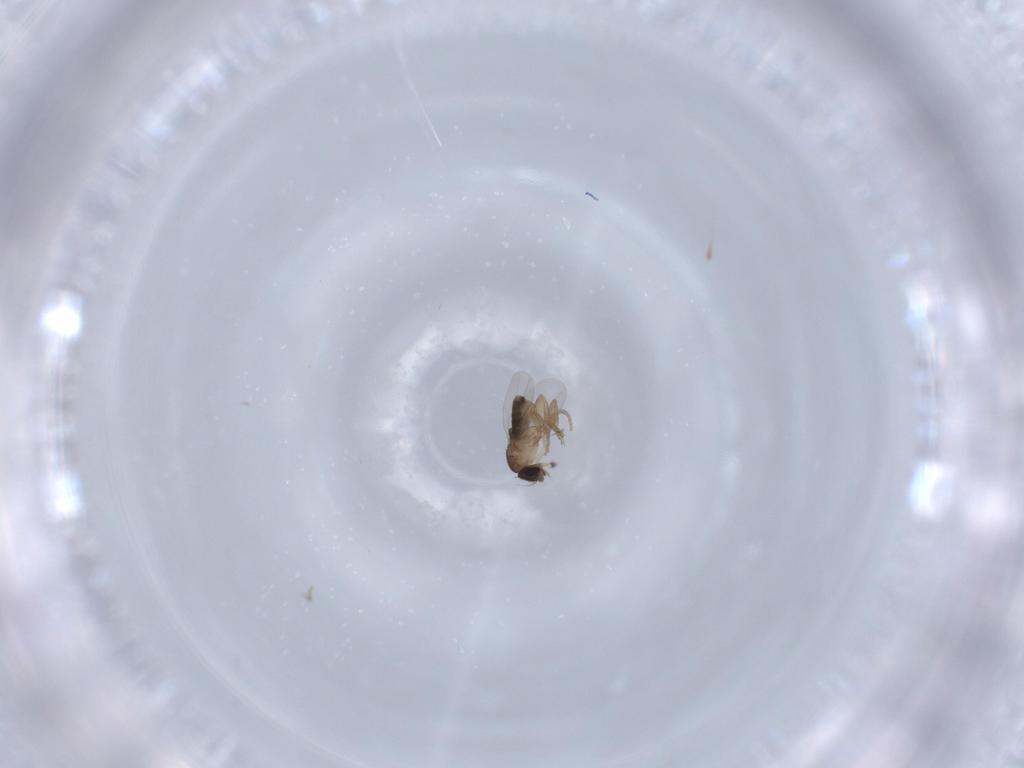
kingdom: Animalia
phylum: Arthropoda
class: Insecta
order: Diptera
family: Phoridae
